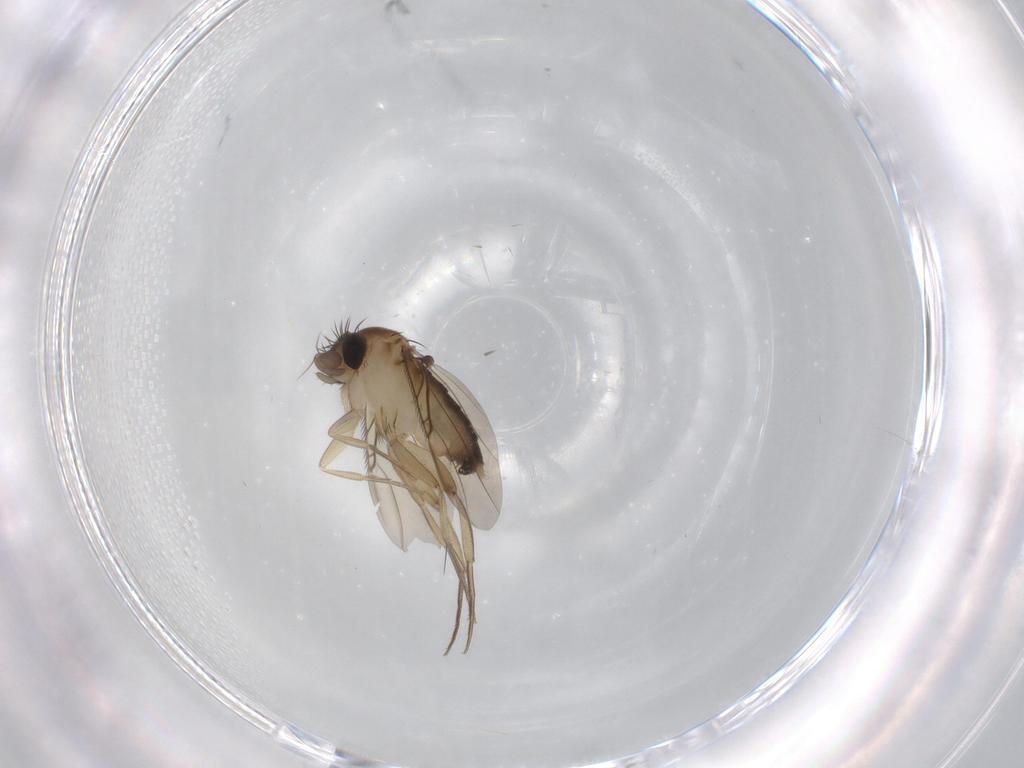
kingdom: Animalia
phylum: Arthropoda
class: Insecta
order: Diptera
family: Phoridae
